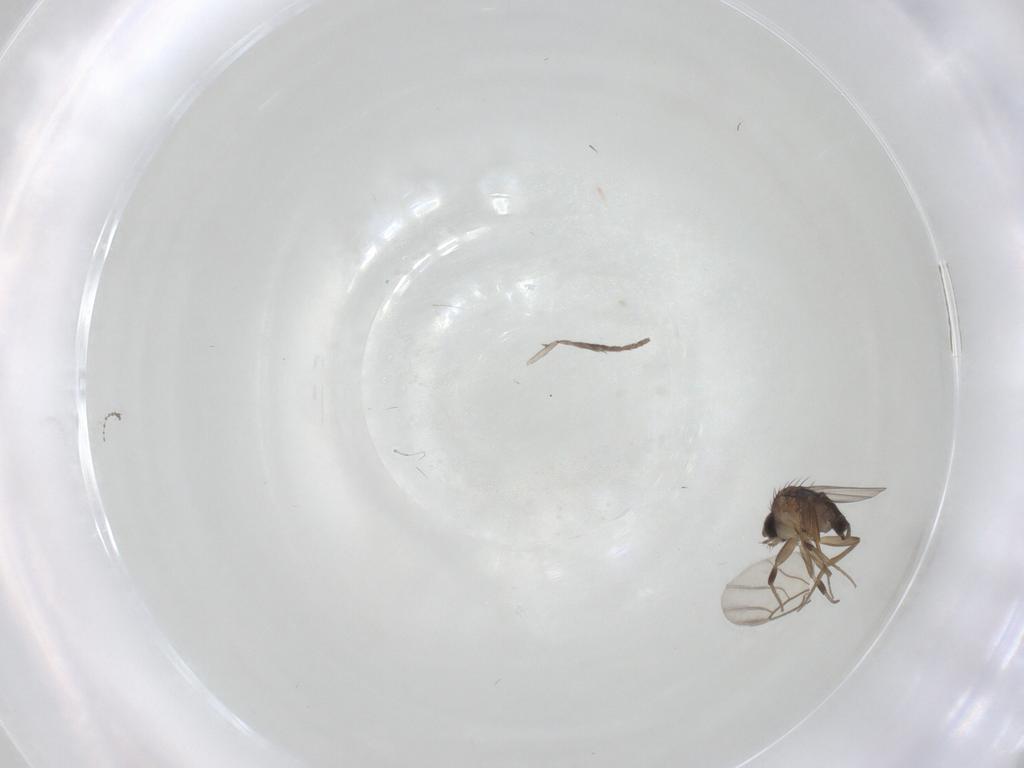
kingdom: Animalia
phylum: Arthropoda
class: Insecta
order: Diptera
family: Phoridae
